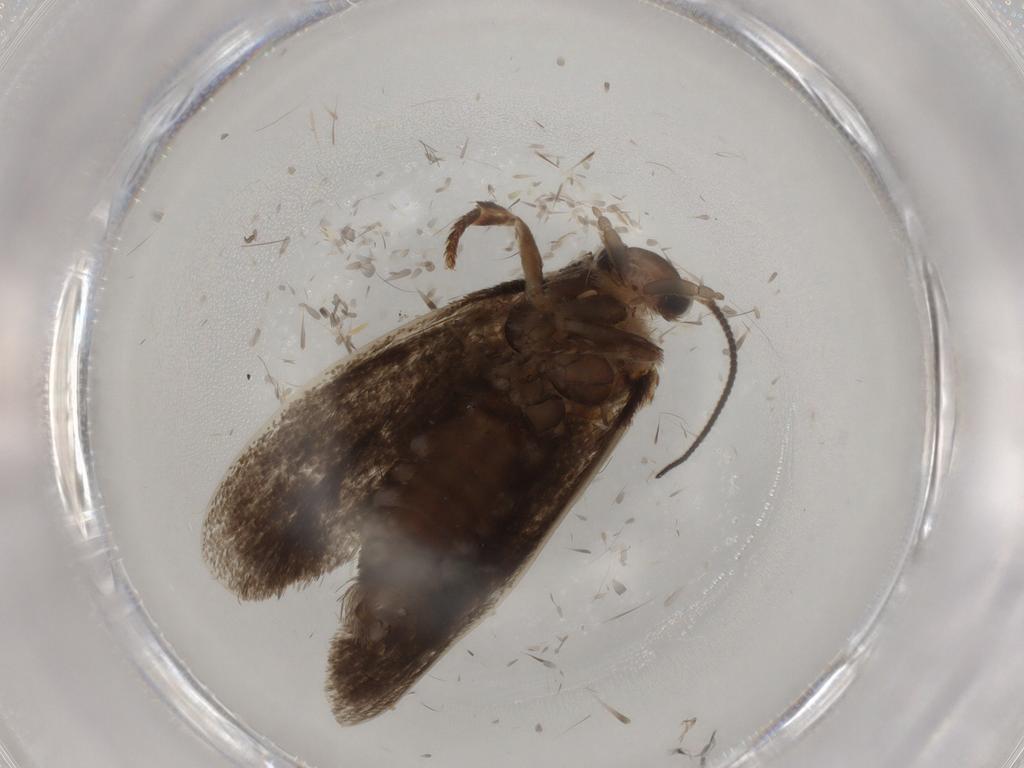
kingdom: Animalia
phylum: Arthropoda
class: Insecta
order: Lepidoptera
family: Tineidae
